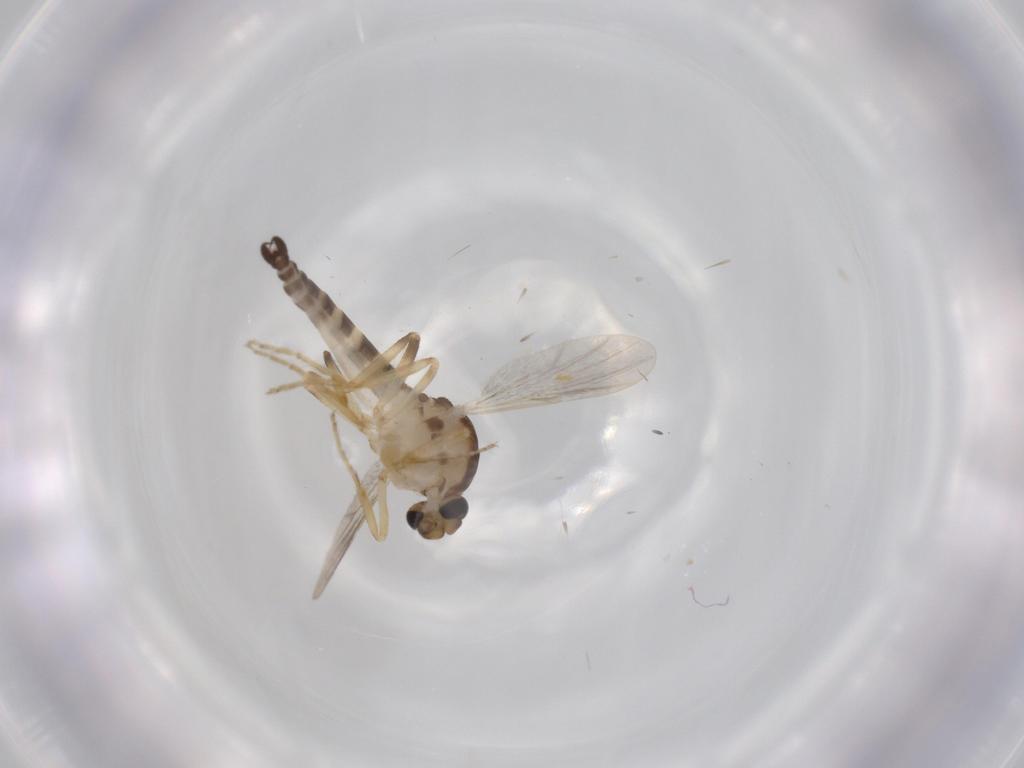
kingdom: Animalia
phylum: Arthropoda
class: Insecta
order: Diptera
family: Ceratopogonidae
